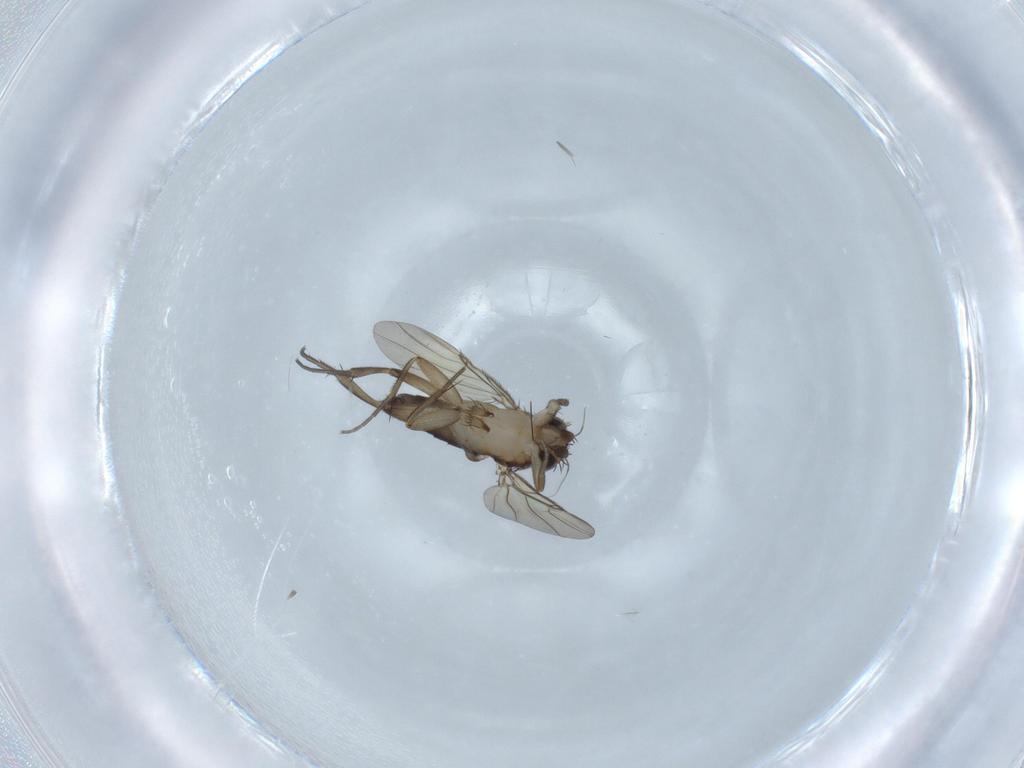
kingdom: Animalia
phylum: Arthropoda
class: Insecta
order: Diptera
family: Phoridae
